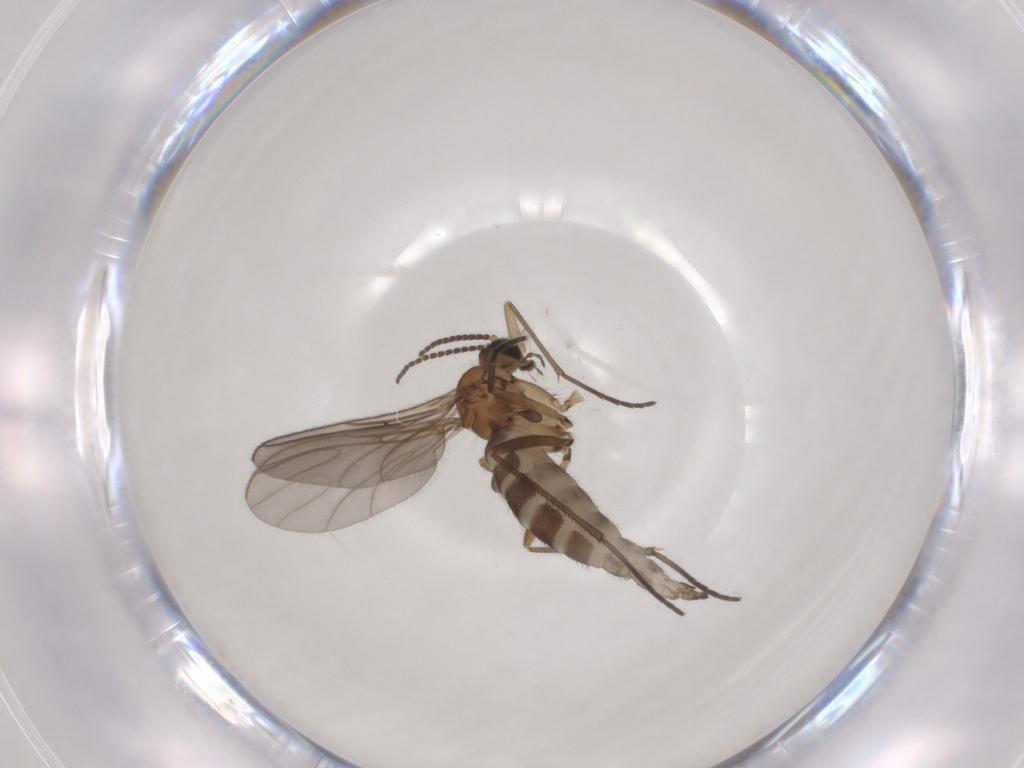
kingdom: Animalia
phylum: Arthropoda
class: Insecta
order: Diptera
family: Sciaridae
